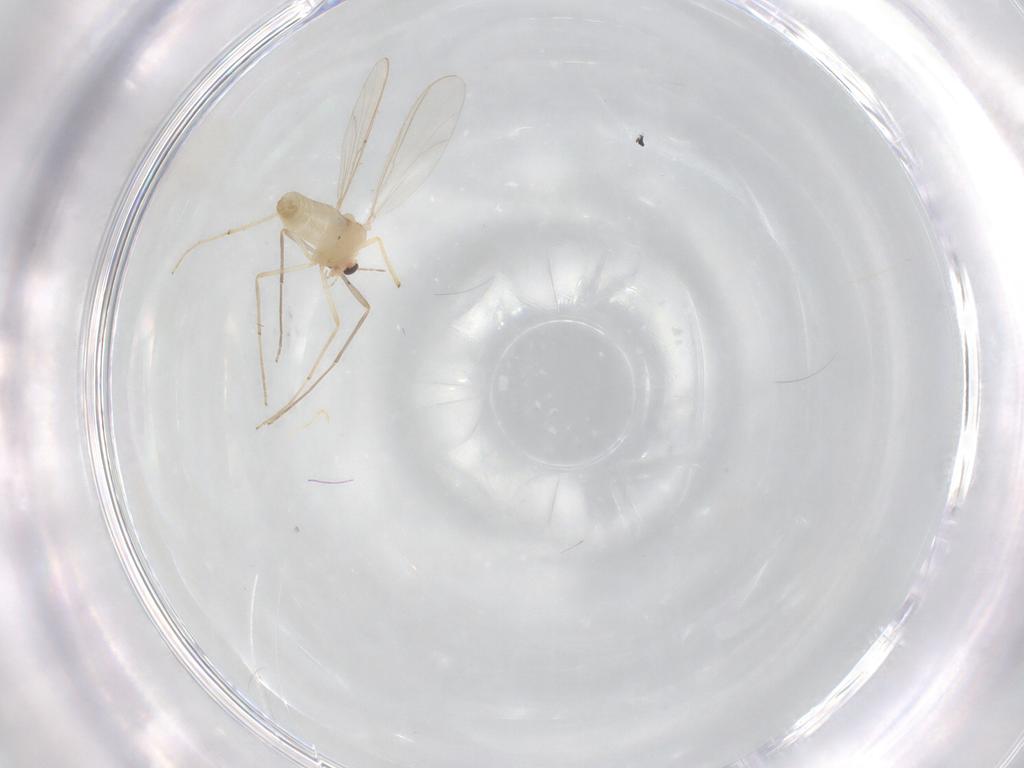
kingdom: Animalia
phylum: Arthropoda
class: Insecta
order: Diptera
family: Chironomidae
